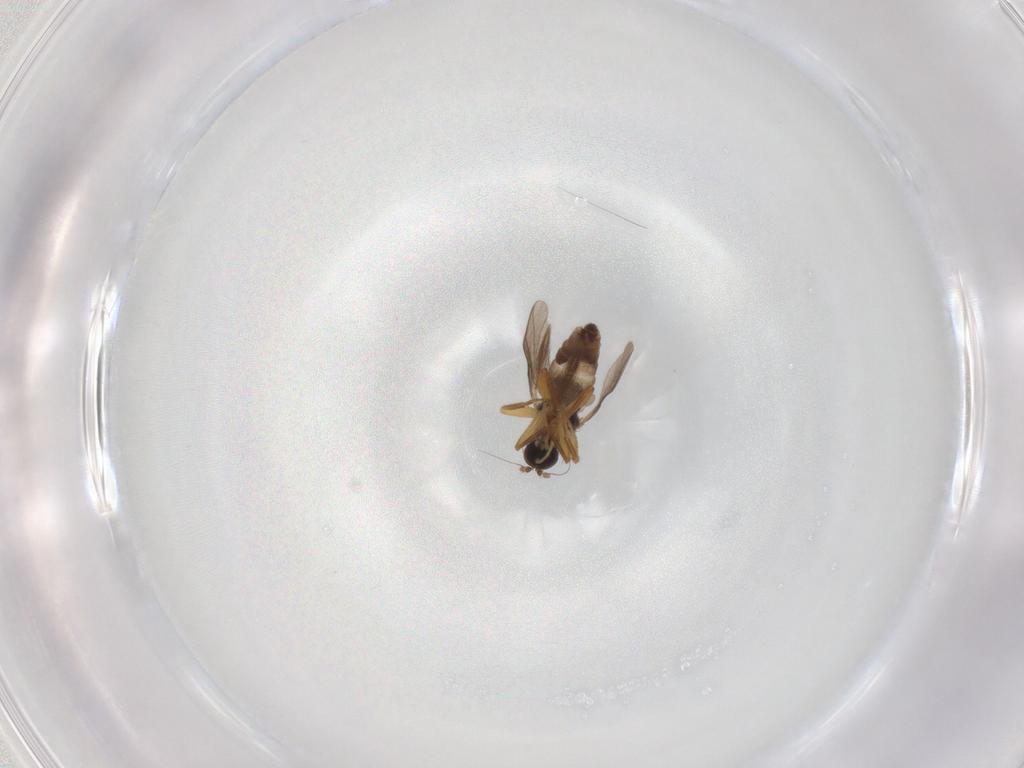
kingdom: Animalia
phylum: Arthropoda
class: Insecta
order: Diptera
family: Hybotidae
